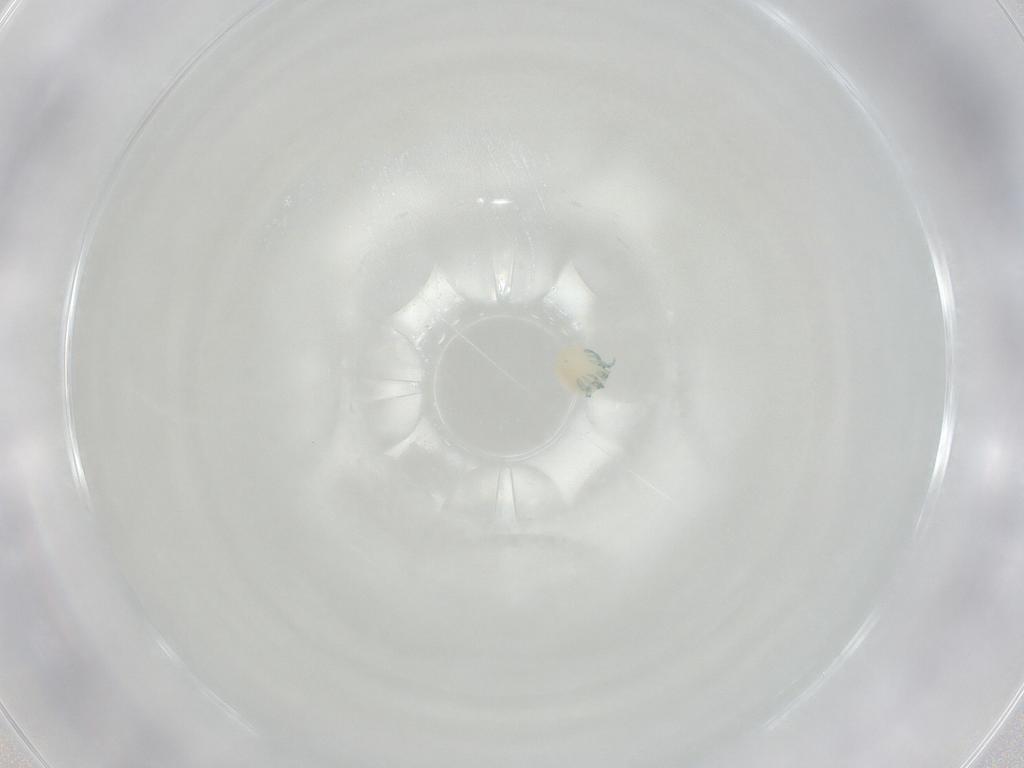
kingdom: Animalia
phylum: Arthropoda
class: Arachnida
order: Trombidiformes
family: Arrenuridae
